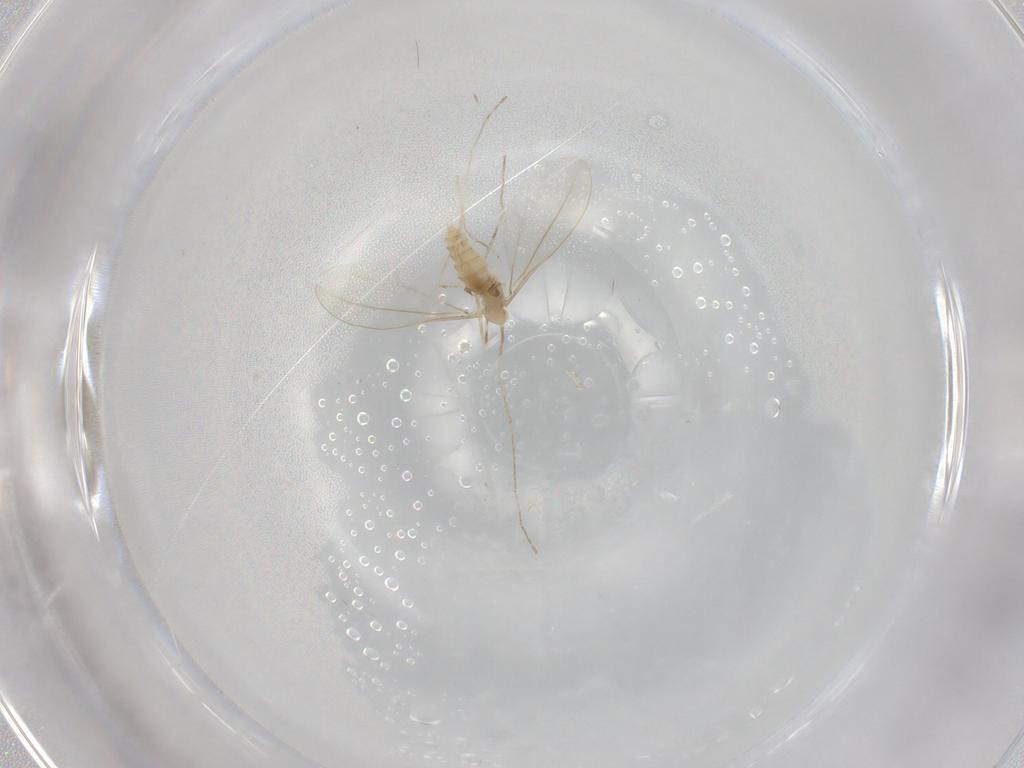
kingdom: Animalia
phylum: Arthropoda
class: Insecta
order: Diptera
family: Cecidomyiidae
